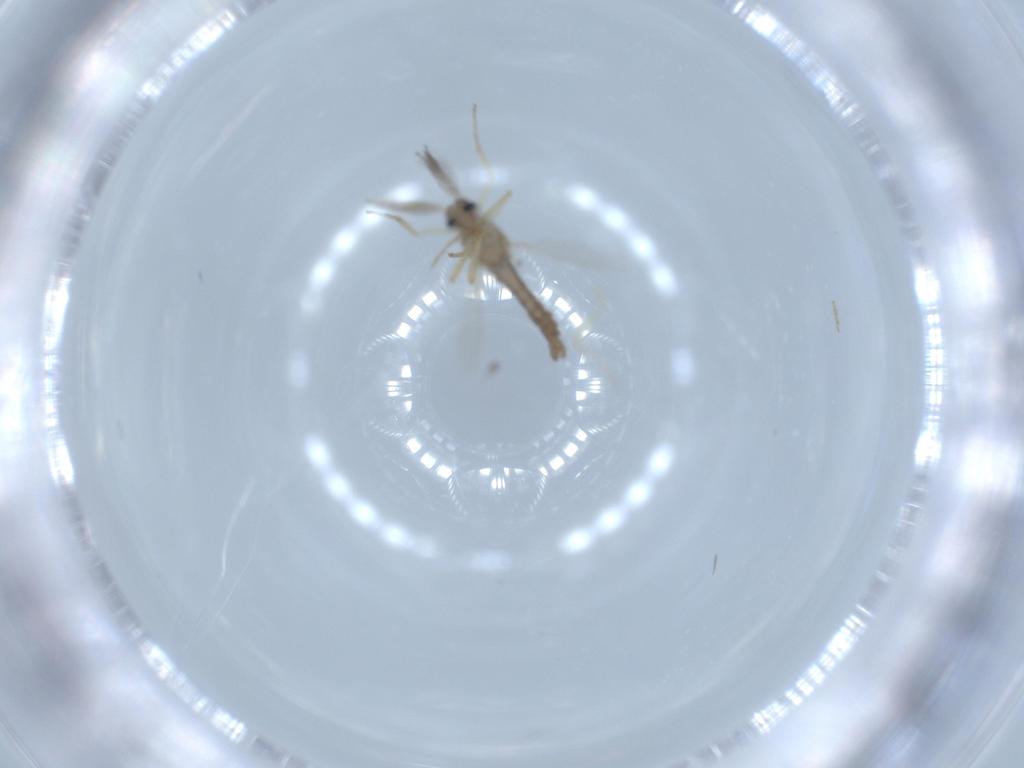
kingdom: Animalia
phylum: Arthropoda
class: Insecta
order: Diptera
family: Ceratopogonidae
